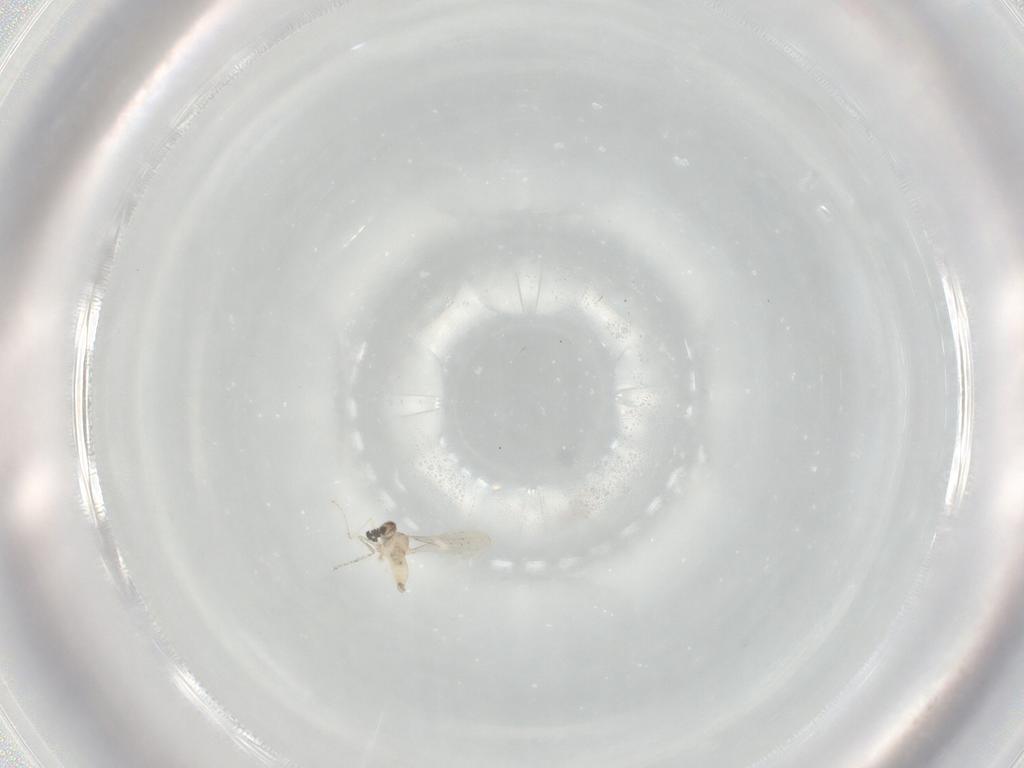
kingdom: Animalia
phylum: Arthropoda
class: Insecta
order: Diptera
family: Cecidomyiidae
